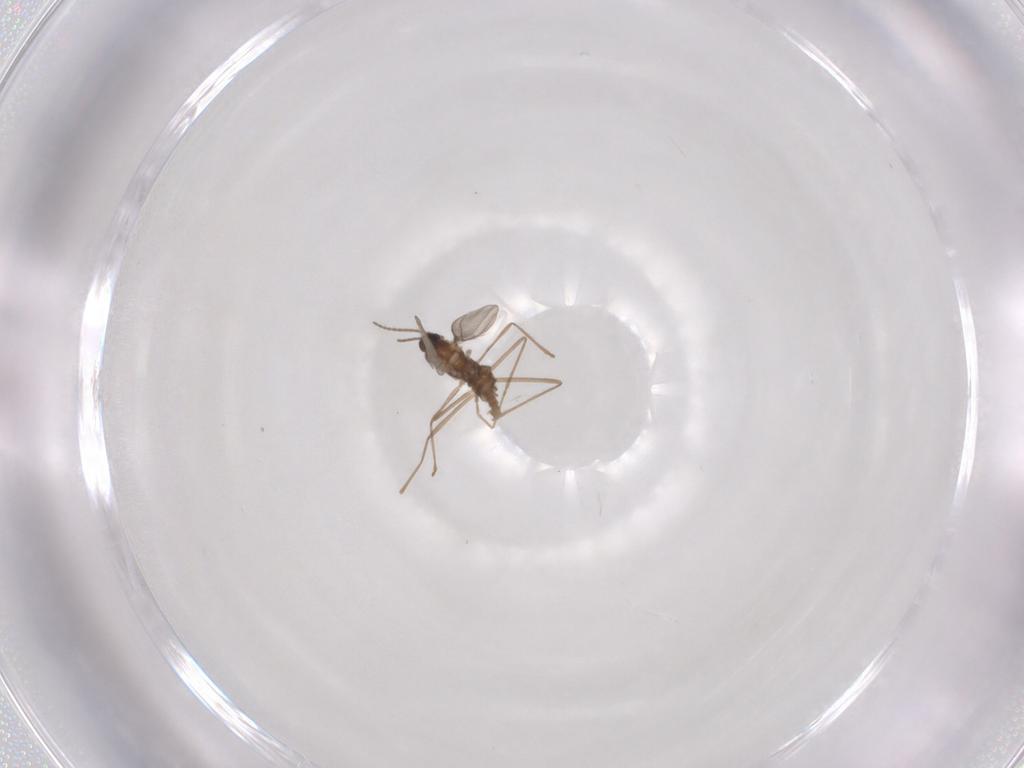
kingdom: Animalia
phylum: Arthropoda
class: Insecta
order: Diptera
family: Cecidomyiidae
